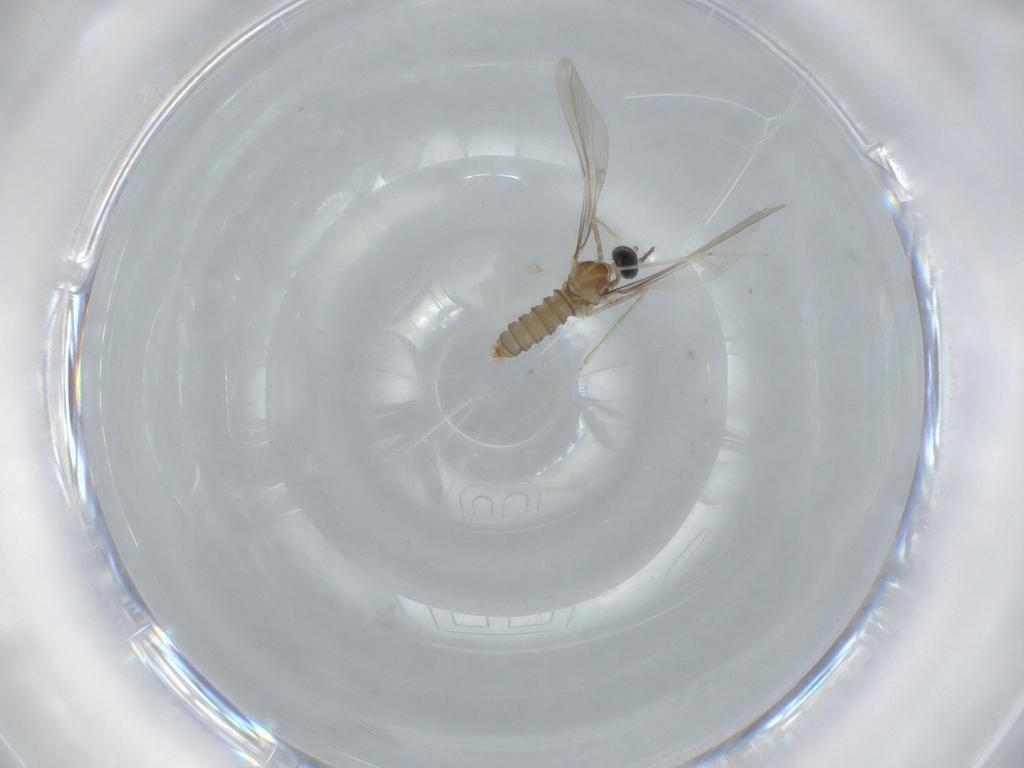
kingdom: Animalia
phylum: Arthropoda
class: Insecta
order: Diptera
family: Cecidomyiidae
